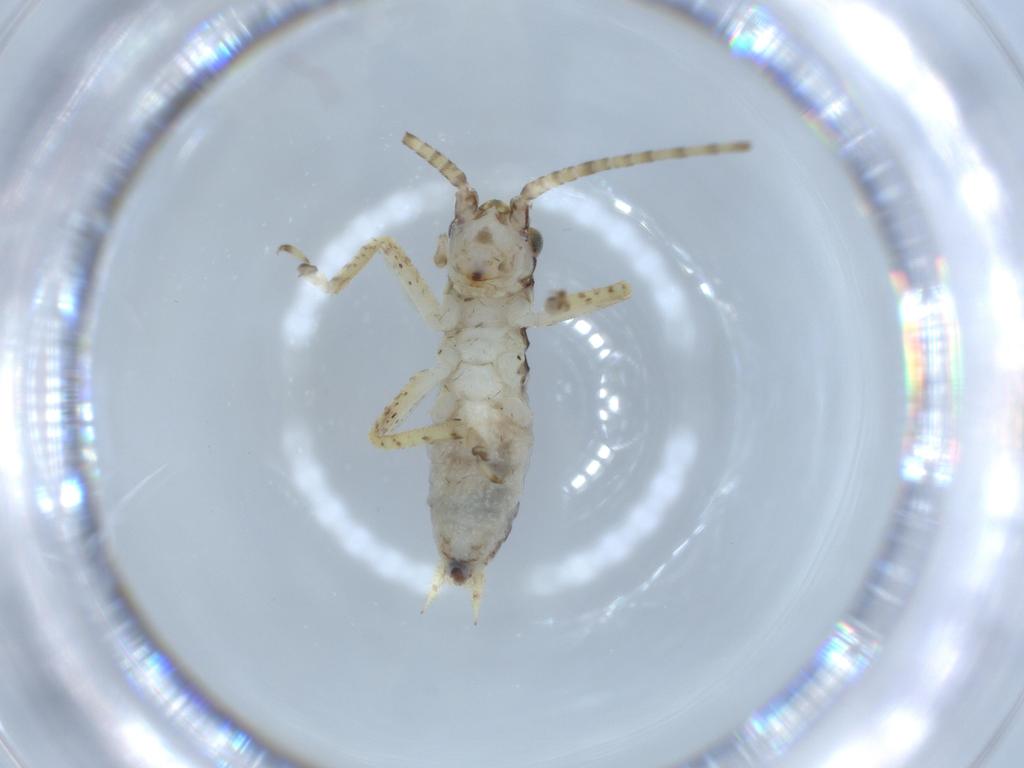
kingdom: Animalia
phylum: Arthropoda
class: Insecta
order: Orthoptera
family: Gryllidae
